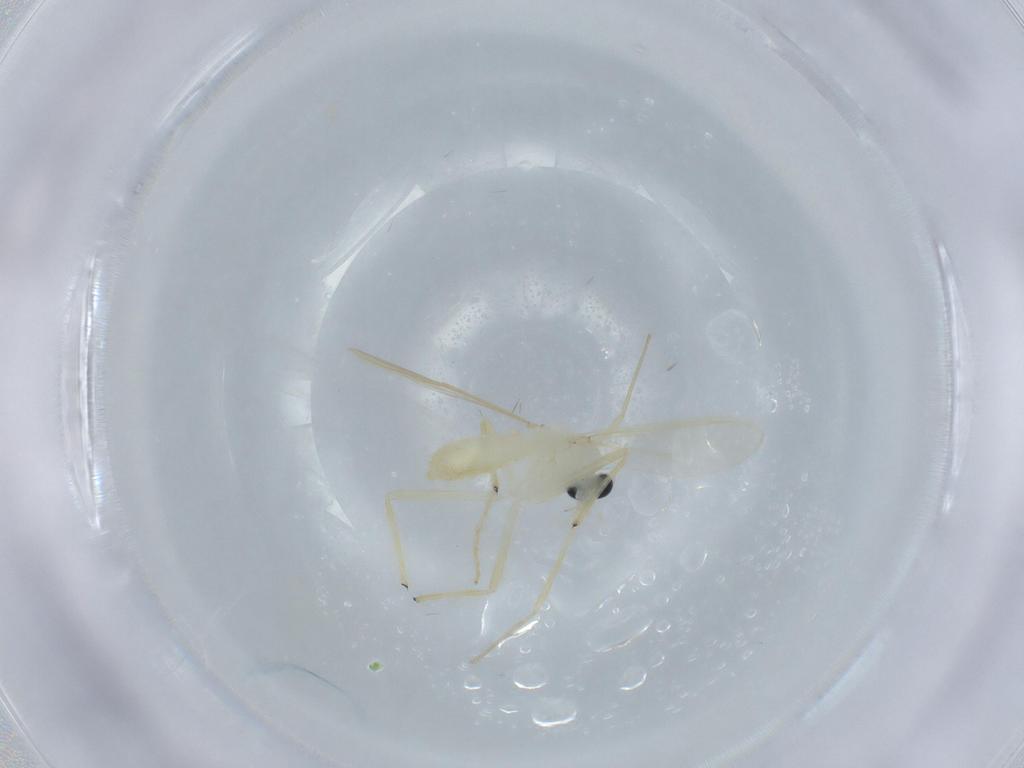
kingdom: Animalia
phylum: Arthropoda
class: Insecta
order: Diptera
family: Chironomidae
